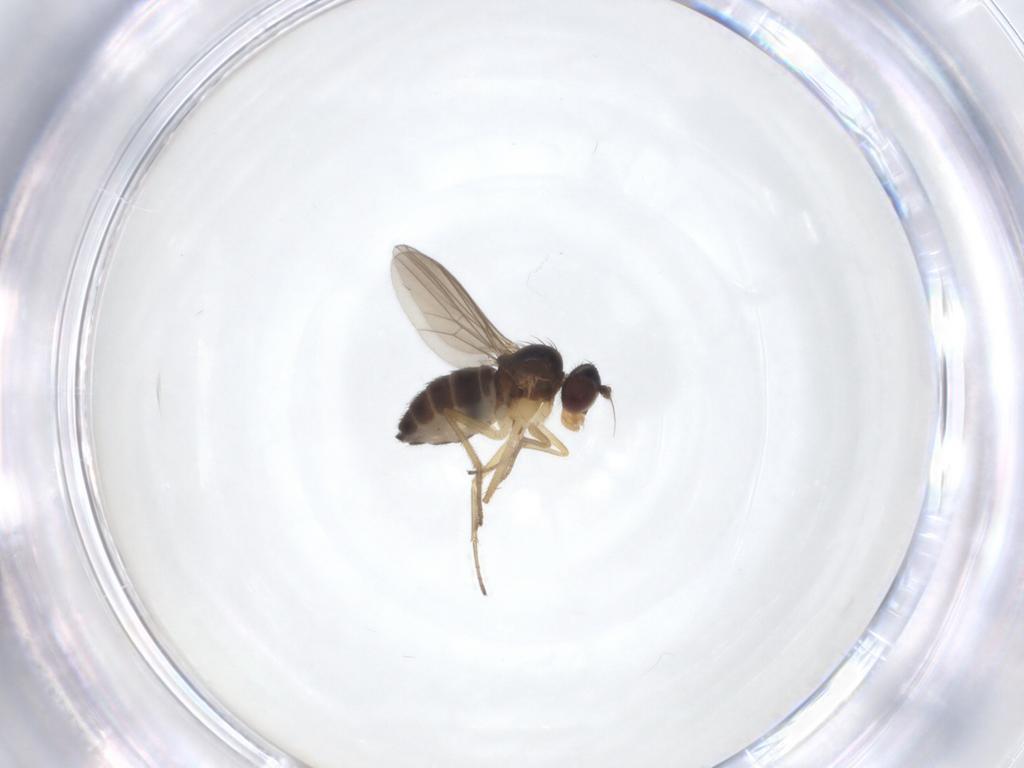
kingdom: Animalia
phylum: Arthropoda
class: Insecta
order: Diptera
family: Dolichopodidae
